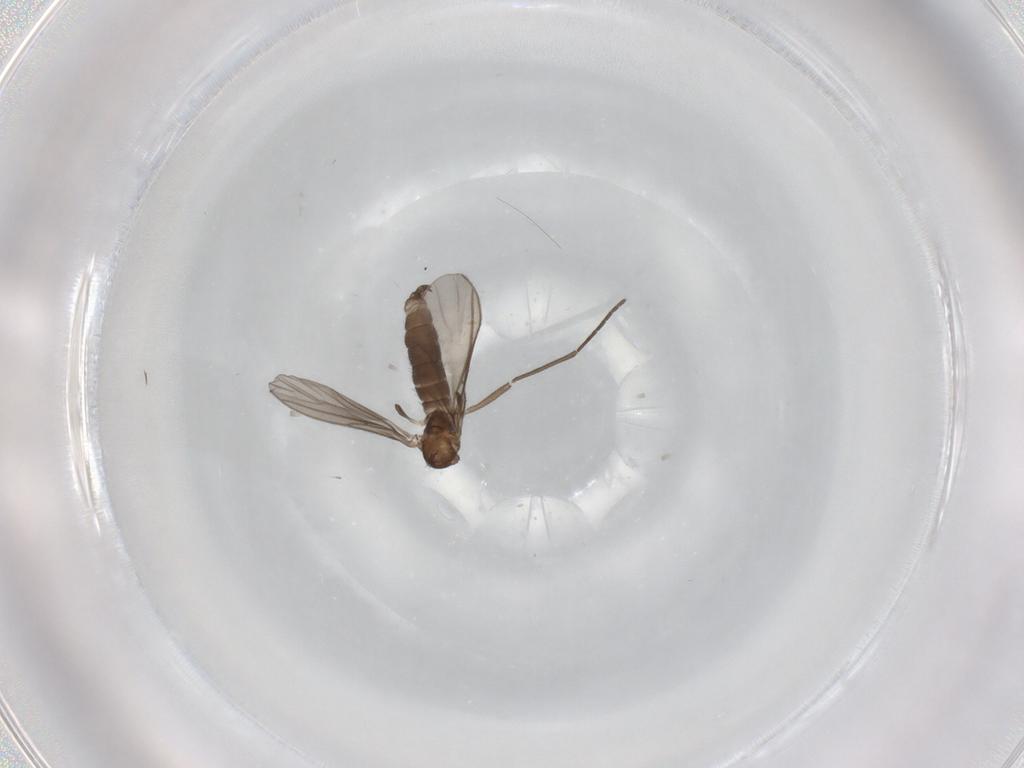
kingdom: Animalia
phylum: Arthropoda
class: Insecta
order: Diptera
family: Sciaridae
